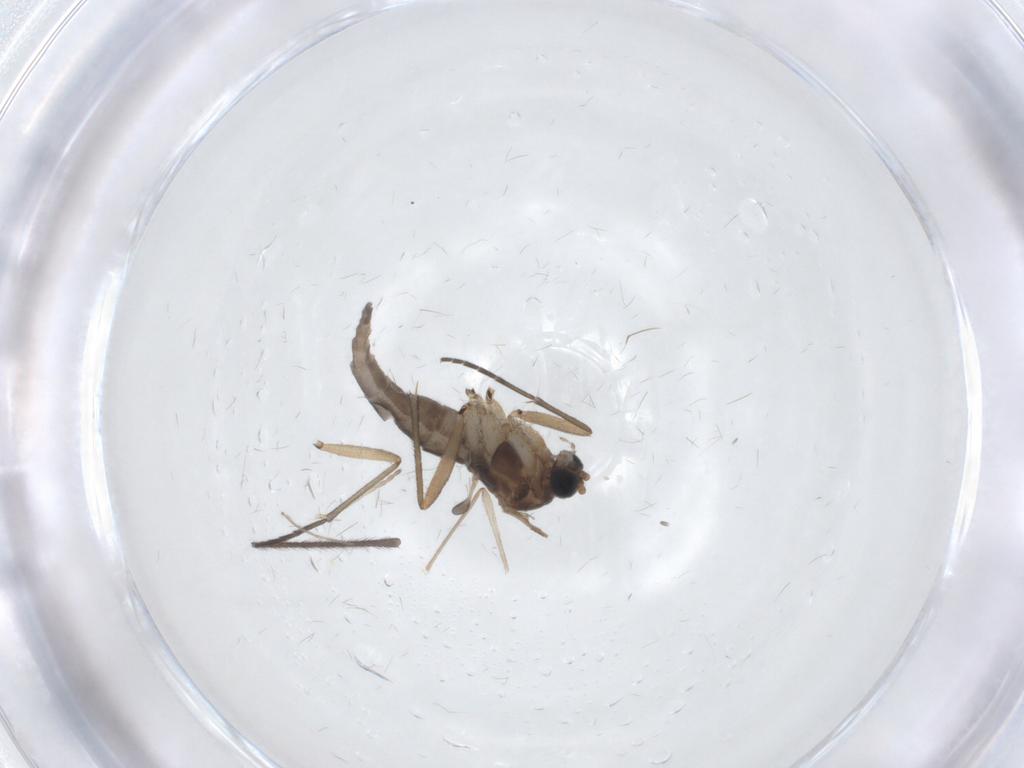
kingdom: Animalia
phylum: Arthropoda
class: Insecta
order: Diptera
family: Sciaridae
